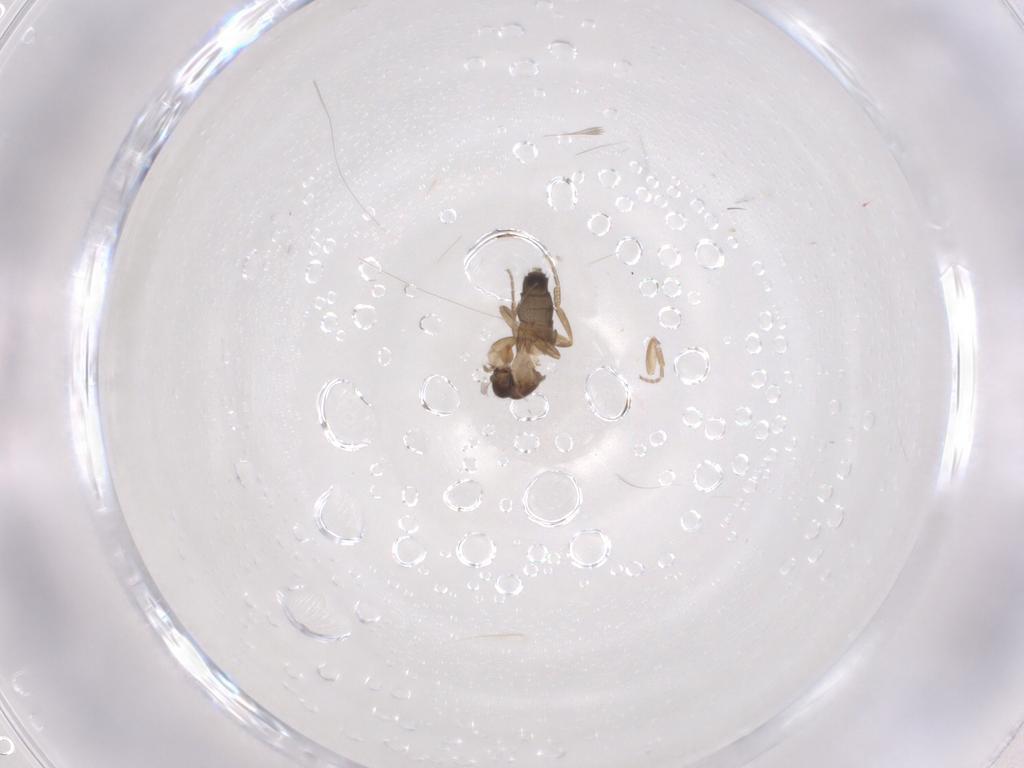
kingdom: Animalia
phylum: Arthropoda
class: Insecta
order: Diptera
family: Phoridae
